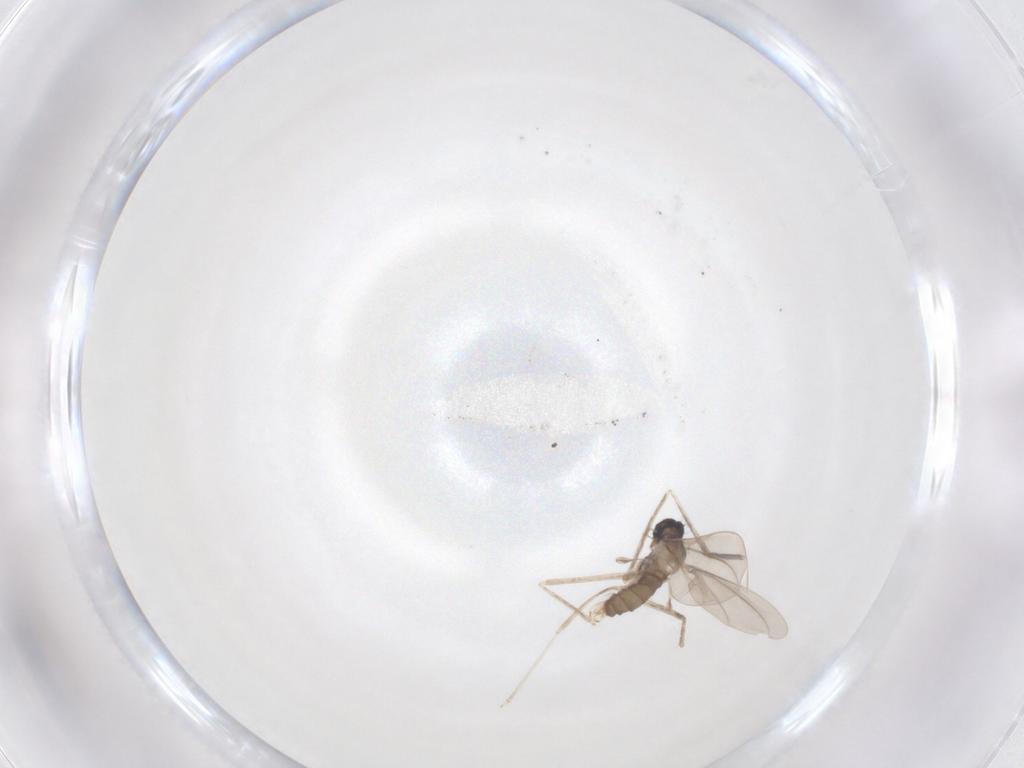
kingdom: Animalia
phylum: Arthropoda
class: Insecta
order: Diptera
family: Cecidomyiidae
